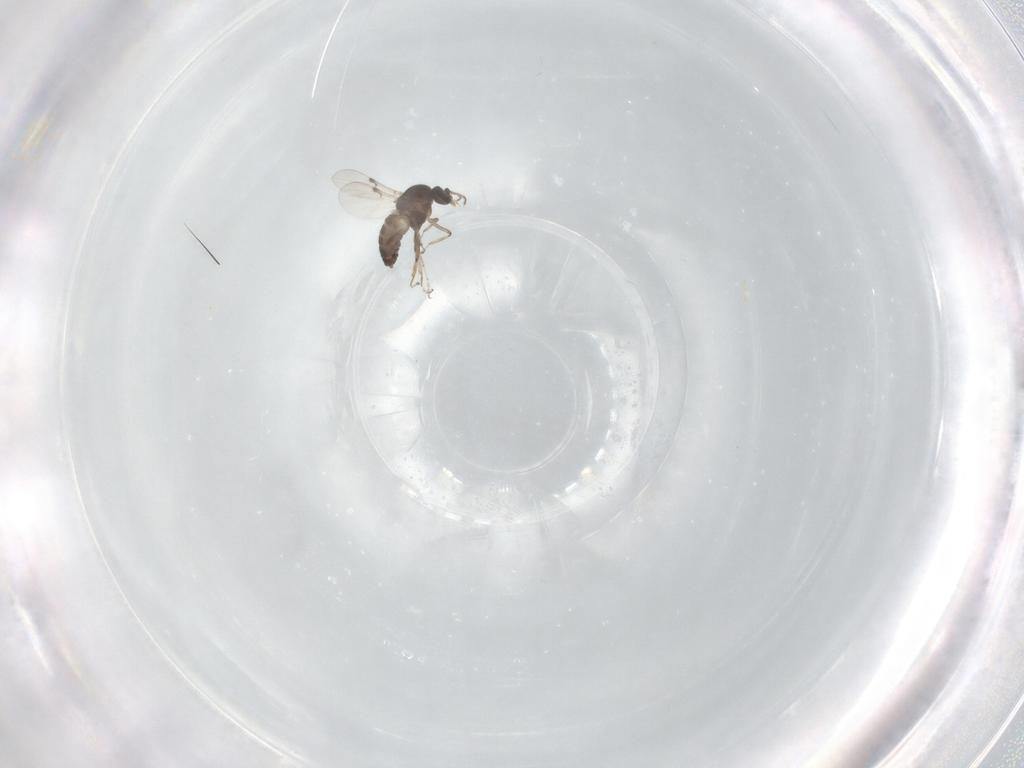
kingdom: Animalia
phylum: Arthropoda
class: Insecta
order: Diptera
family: Ceratopogonidae
